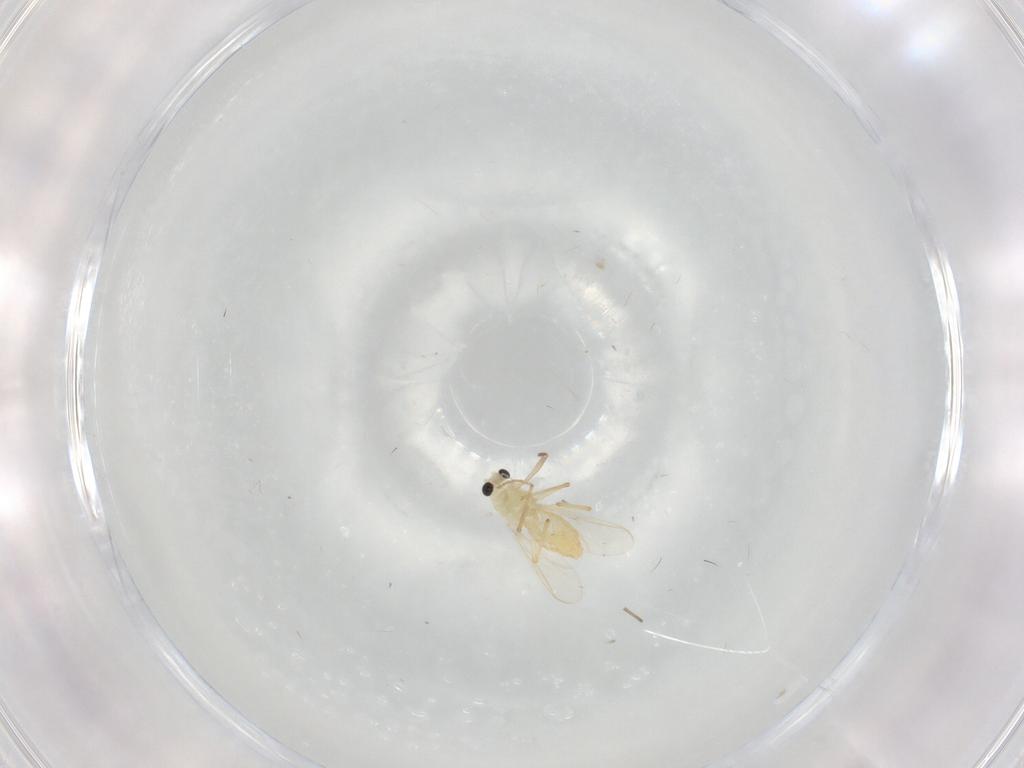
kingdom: Animalia
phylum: Arthropoda
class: Insecta
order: Diptera
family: Chironomidae
